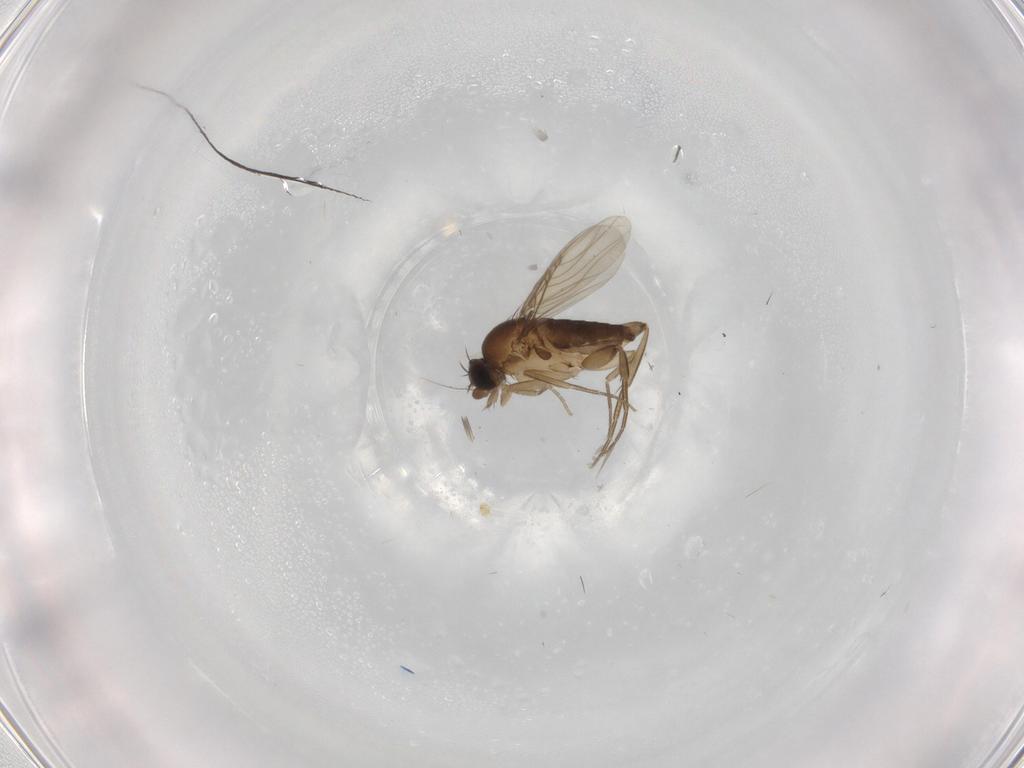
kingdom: Animalia
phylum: Arthropoda
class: Insecta
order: Diptera
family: Phoridae
